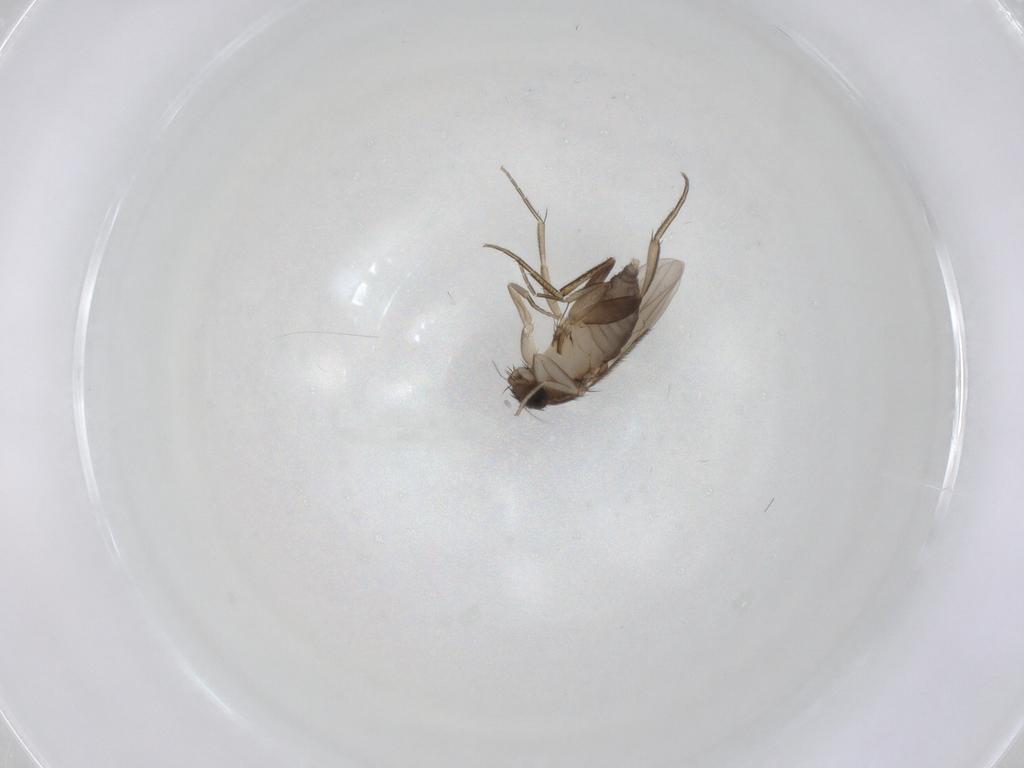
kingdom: Animalia
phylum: Arthropoda
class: Insecta
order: Diptera
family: Phoridae
